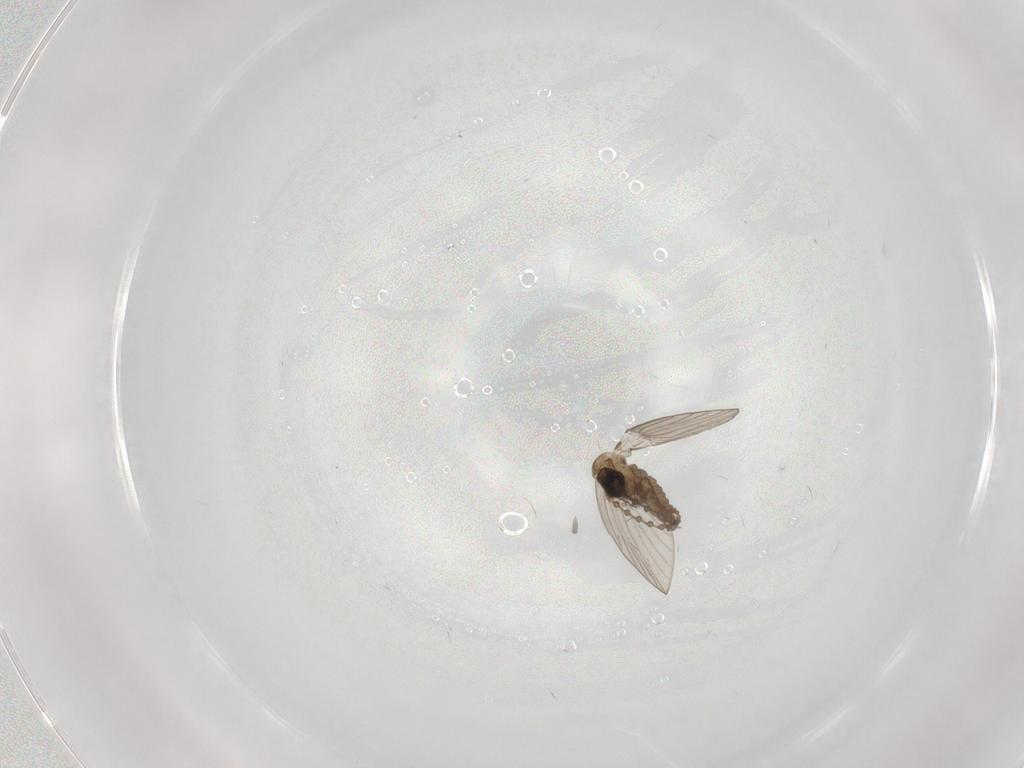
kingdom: Animalia
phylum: Arthropoda
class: Insecta
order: Diptera
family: Psychodidae
